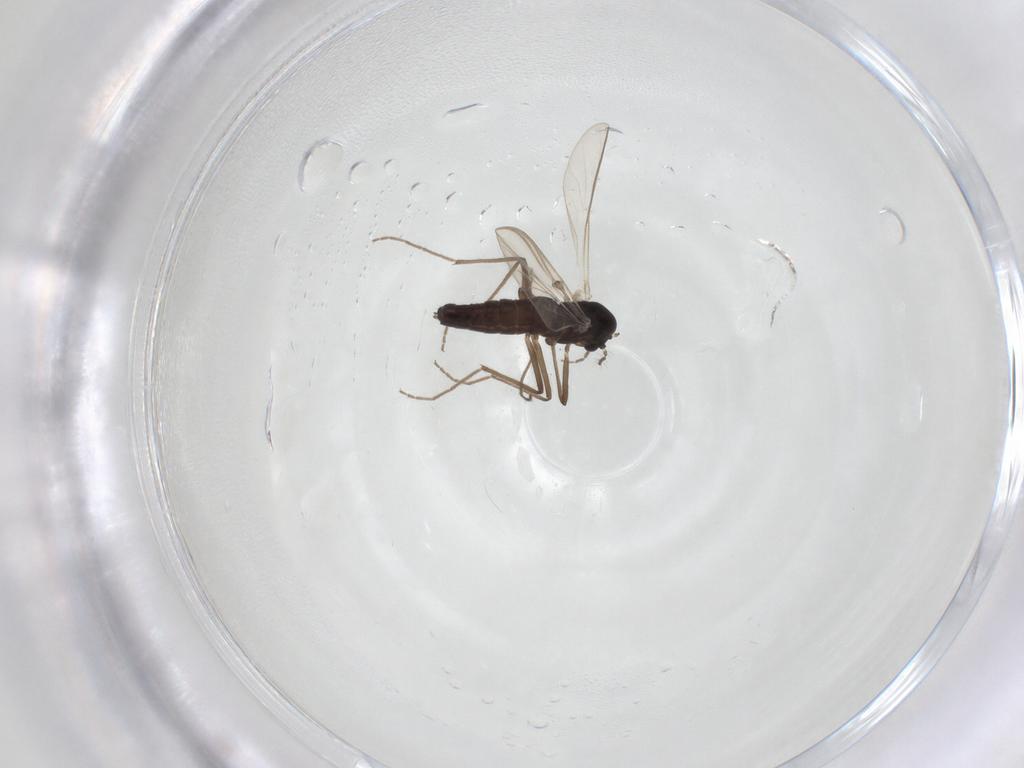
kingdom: Animalia
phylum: Arthropoda
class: Insecta
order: Diptera
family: Chironomidae
